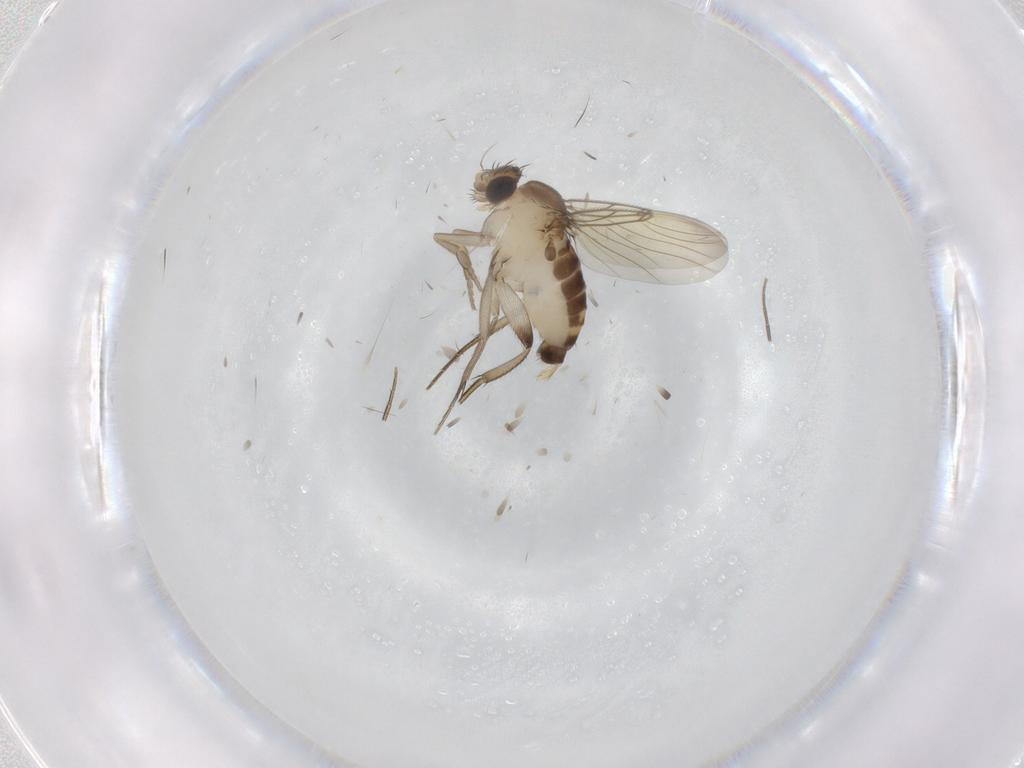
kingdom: Animalia
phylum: Arthropoda
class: Insecta
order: Diptera
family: Phoridae
